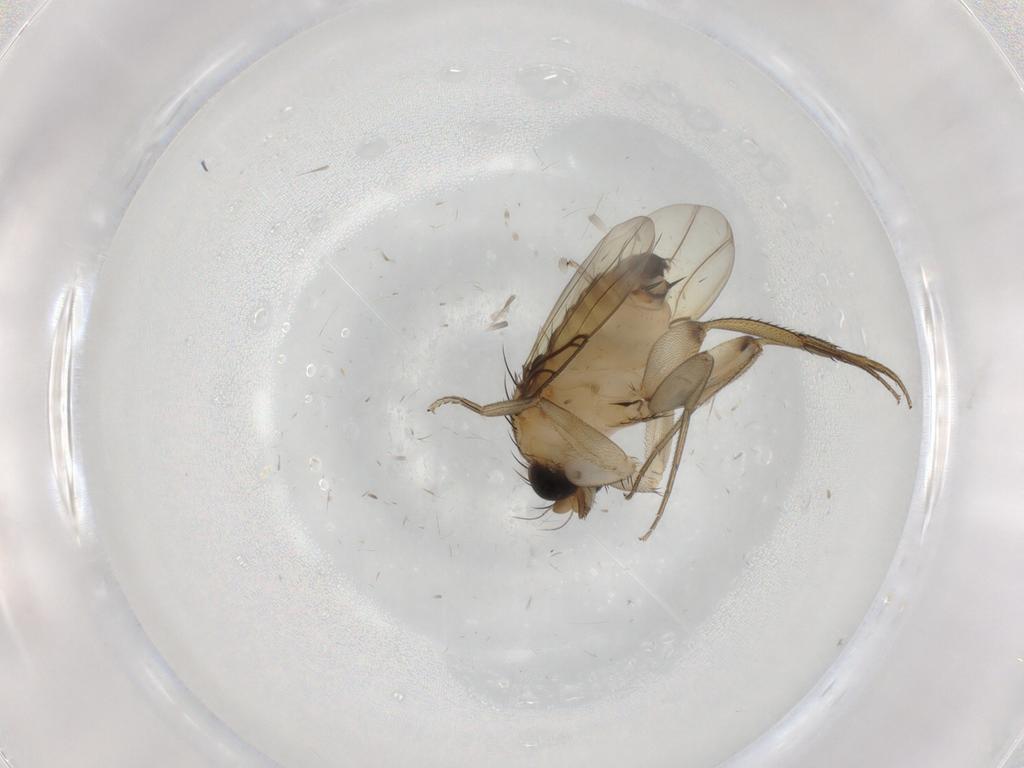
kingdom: Animalia
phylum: Arthropoda
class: Insecta
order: Diptera
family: Phoridae
